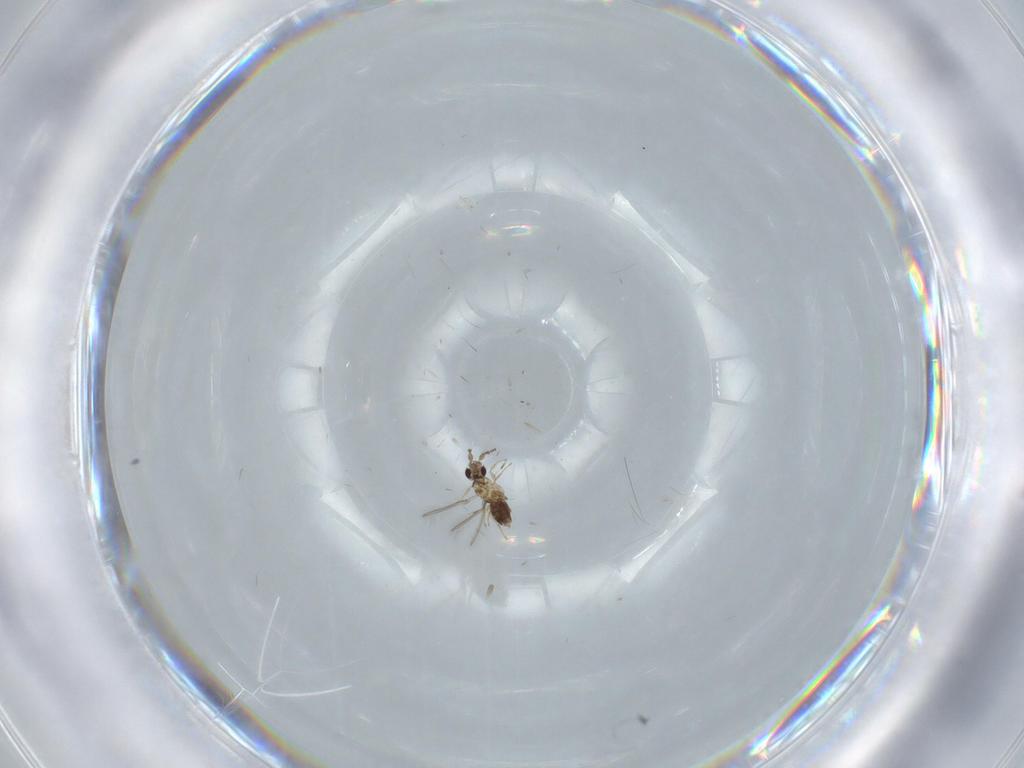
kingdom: Animalia
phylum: Arthropoda
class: Insecta
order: Hymenoptera
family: Mymaridae
